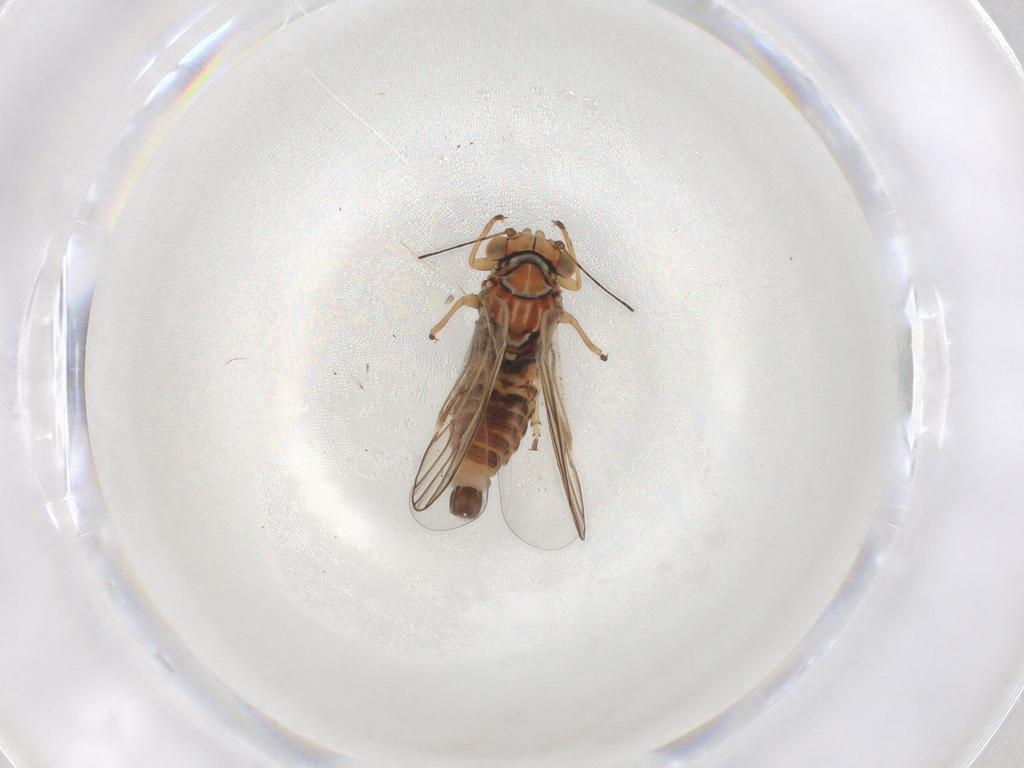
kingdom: Animalia
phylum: Arthropoda
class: Insecta
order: Hemiptera
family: Psyllidae
